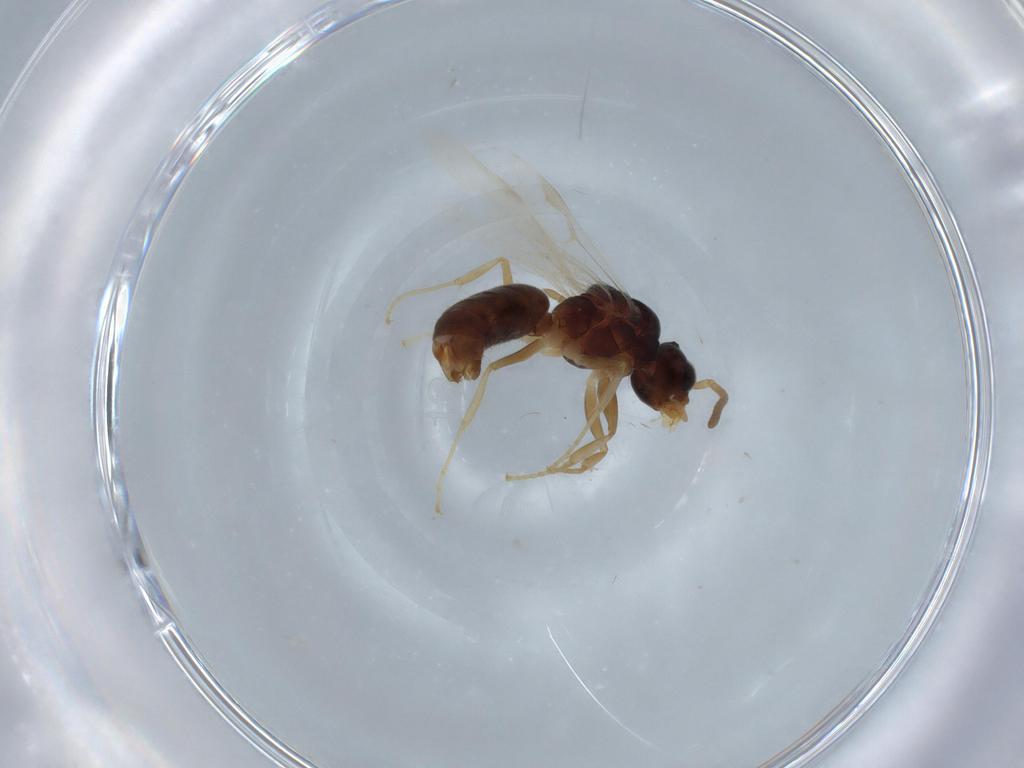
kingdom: Animalia
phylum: Arthropoda
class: Insecta
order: Hymenoptera
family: Formicidae
